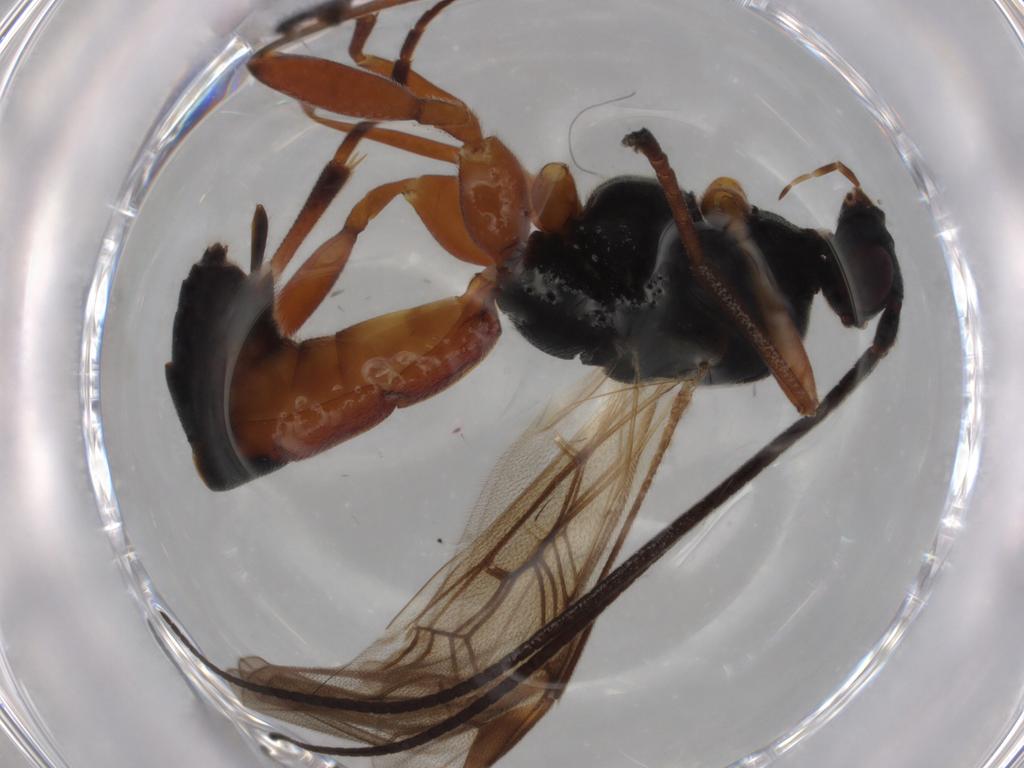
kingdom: Animalia
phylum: Arthropoda
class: Insecta
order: Hymenoptera
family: Braconidae
